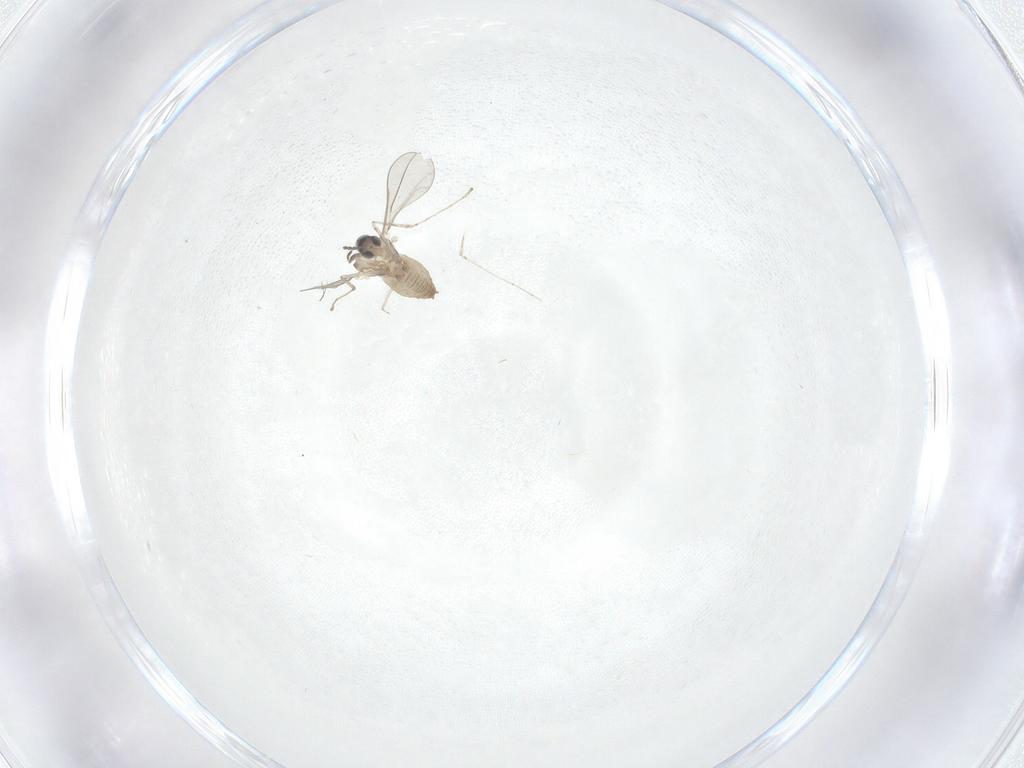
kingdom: Animalia
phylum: Arthropoda
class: Insecta
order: Diptera
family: Cecidomyiidae
